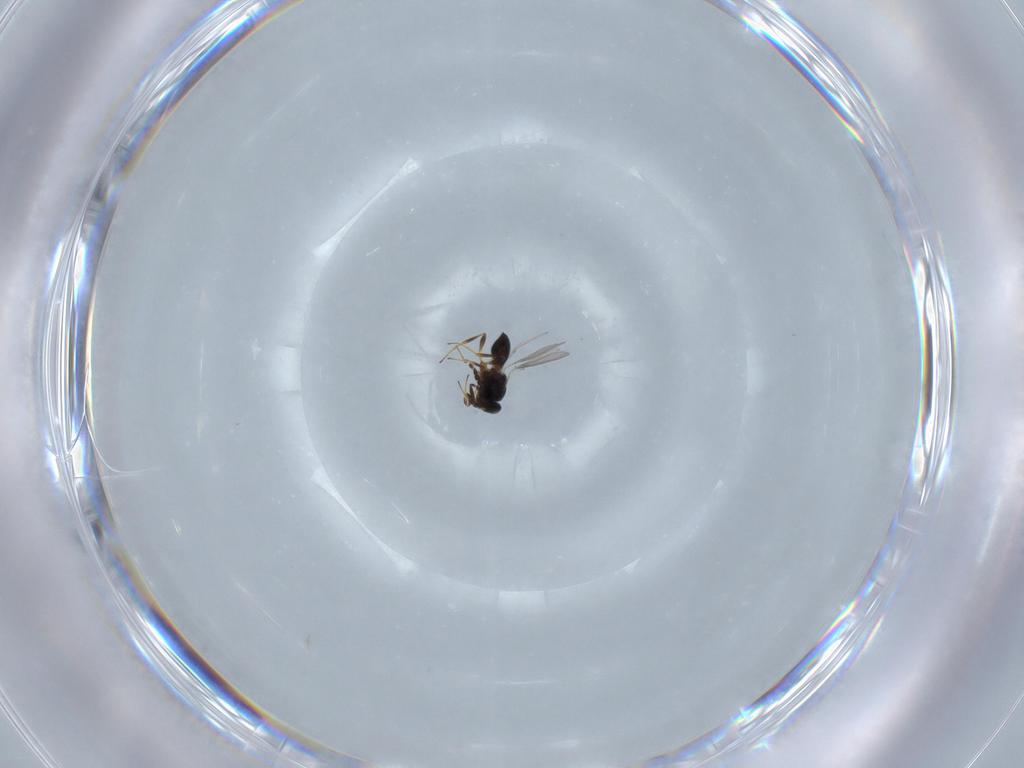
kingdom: Animalia
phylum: Arthropoda
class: Insecta
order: Hymenoptera
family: Platygastridae
